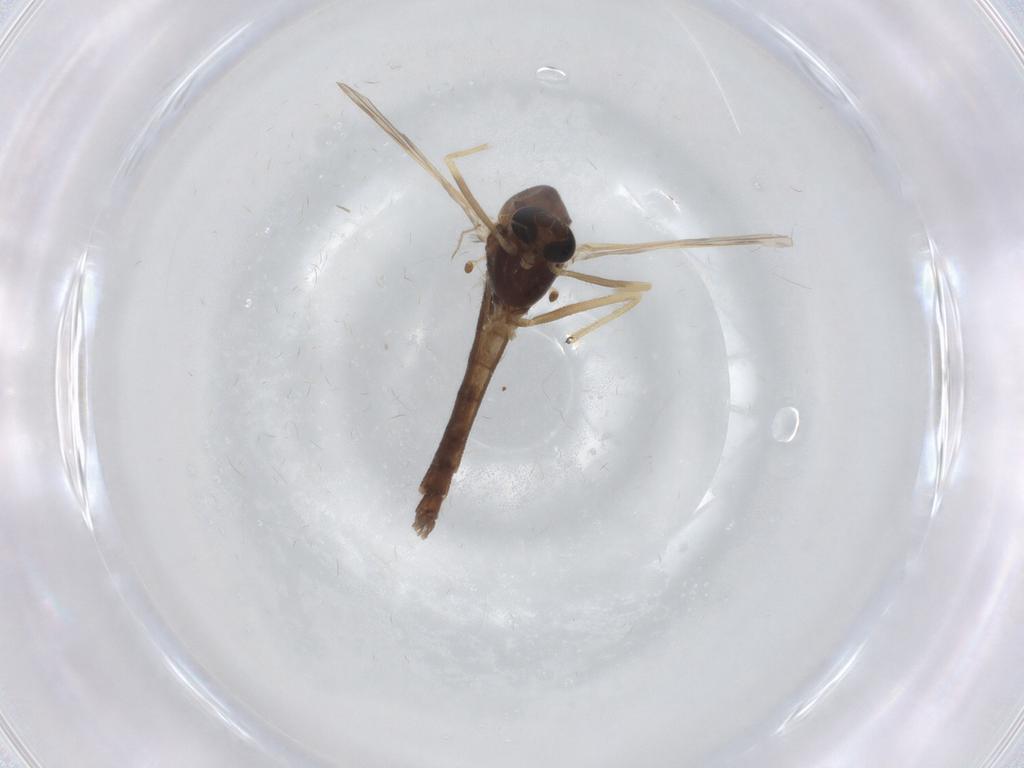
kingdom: Animalia
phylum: Arthropoda
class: Insecta
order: Diptera
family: Chironomidae
